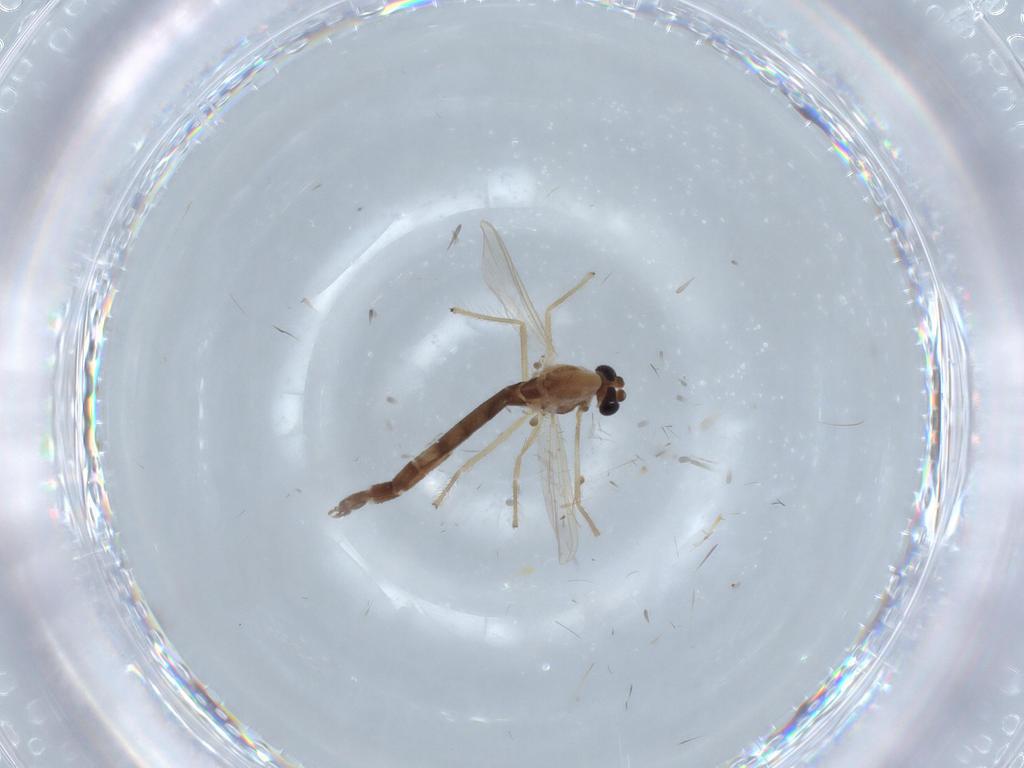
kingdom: Animalia
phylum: Arthropoda
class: Insecta
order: Diptera
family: Chironomidae
